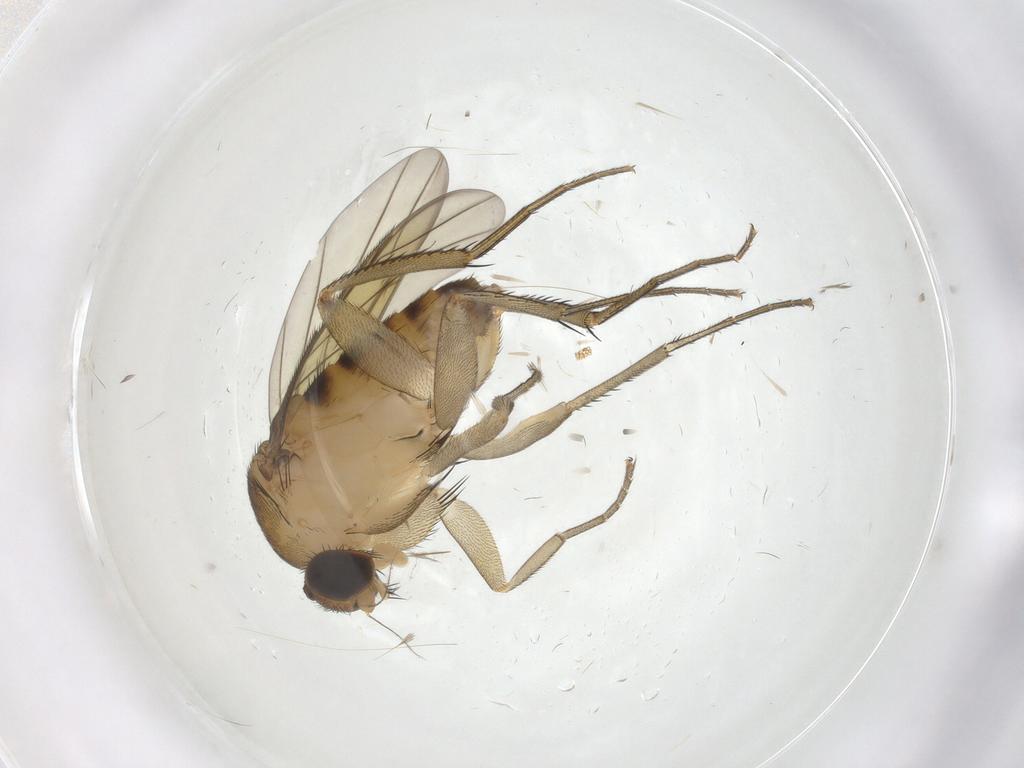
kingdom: Animalia
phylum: Arthropoda
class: Insecta
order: Diptera
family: Phoridae
